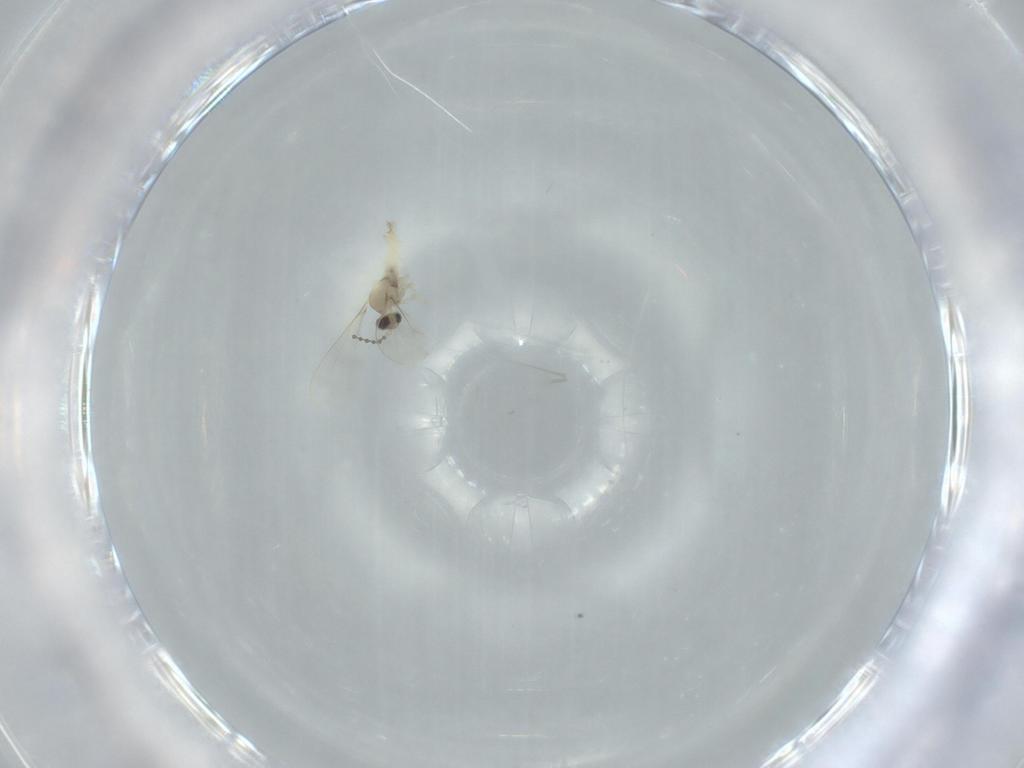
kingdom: Animalia
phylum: Arthropoda
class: Insecta
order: Diptera
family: Cecidomyiidae
